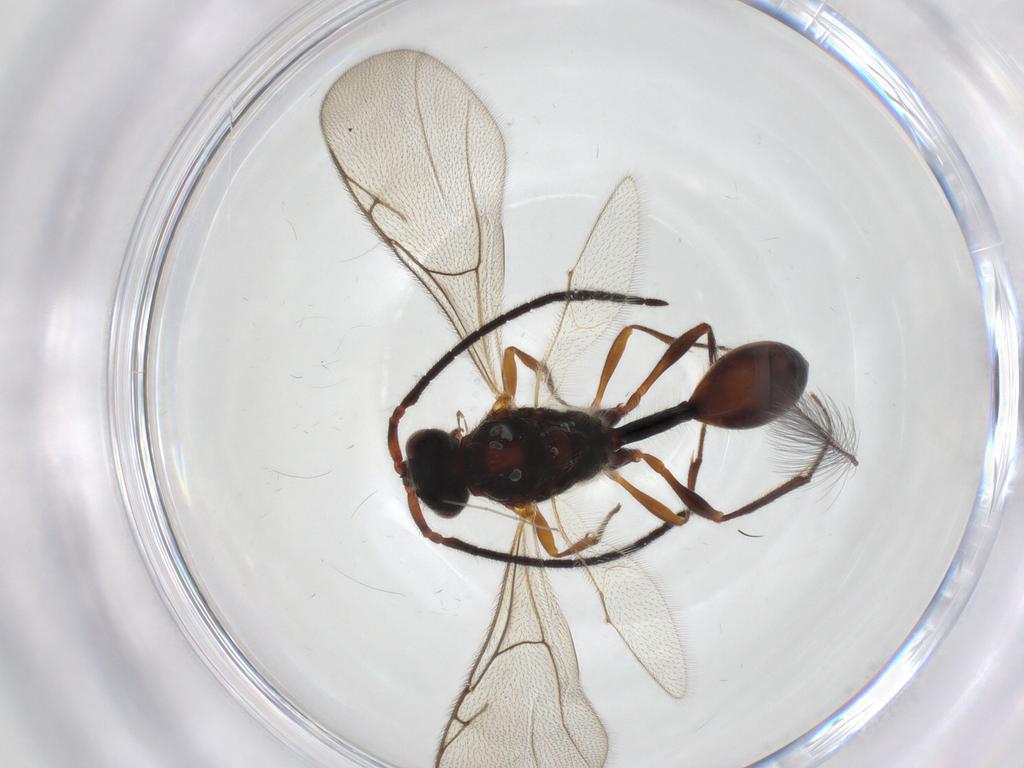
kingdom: Animalia
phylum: Arthropoda
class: Insecta
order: Hymenoptera
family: Diapriidae
